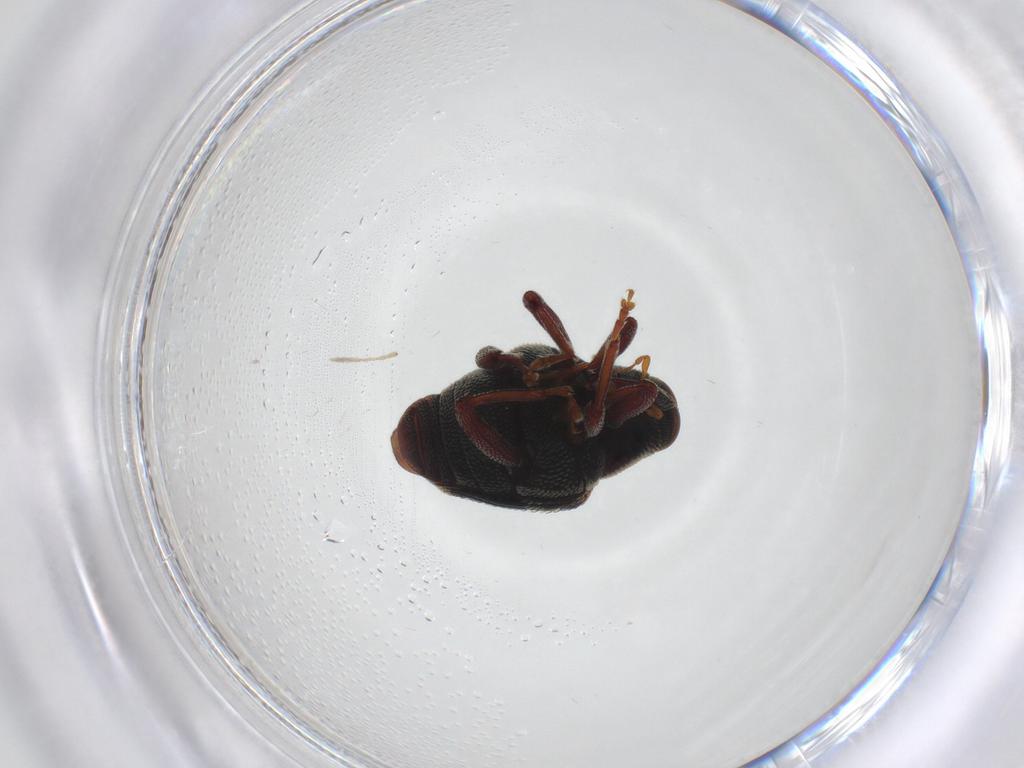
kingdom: Animalia
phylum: Arthropoda
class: Insecta
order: Coleoptera
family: Curculionidae
